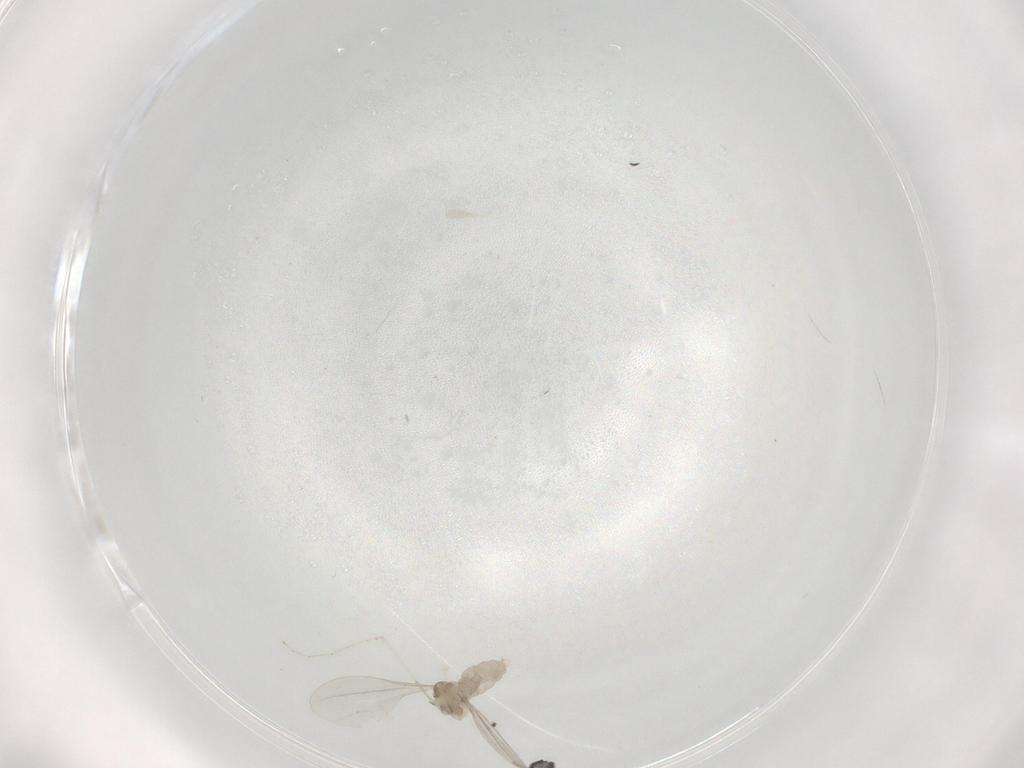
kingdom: Animalia
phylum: Arthropoda
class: Insecta
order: Diptera
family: Cecidomyiidae
